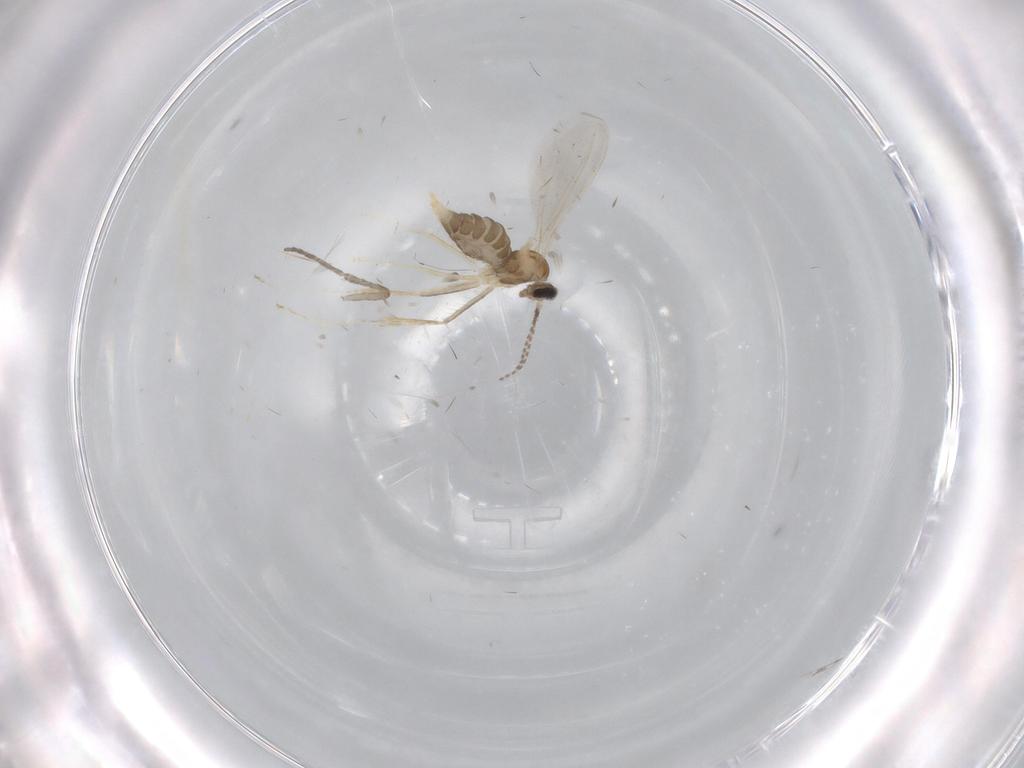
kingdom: Animalia
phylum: Arthropoda
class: Insecta
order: Diptera
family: Cecidomyiidae
